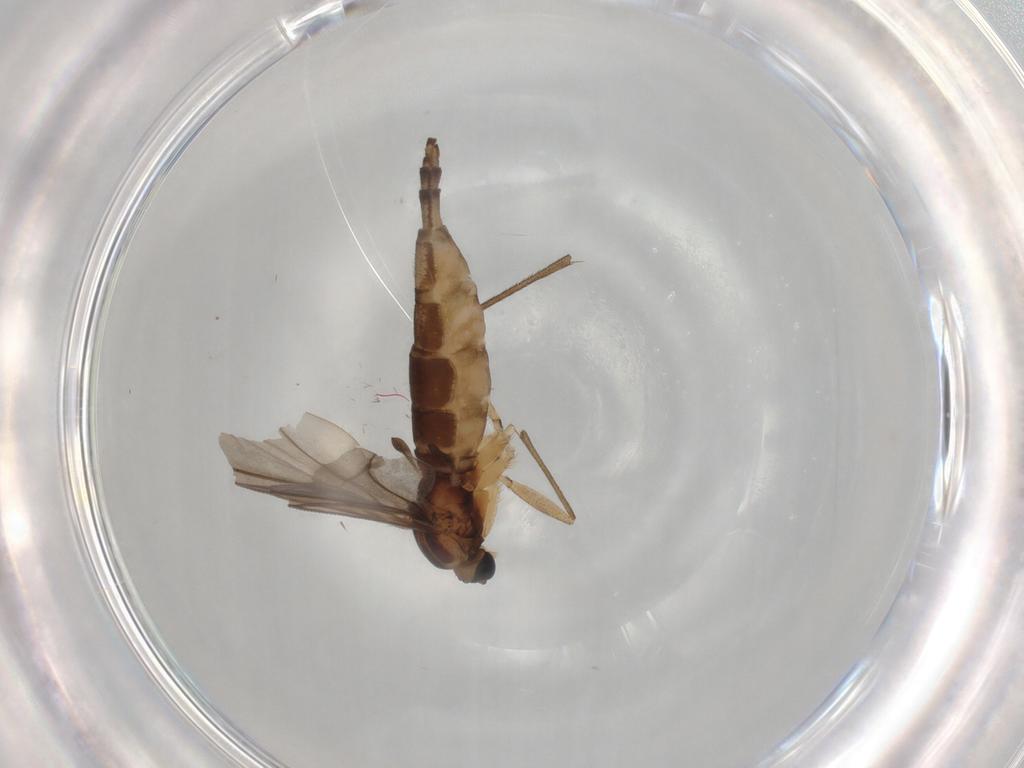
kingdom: Animalia
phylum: Arthropoda
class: Insecta
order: Diptera
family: Sciaridae
